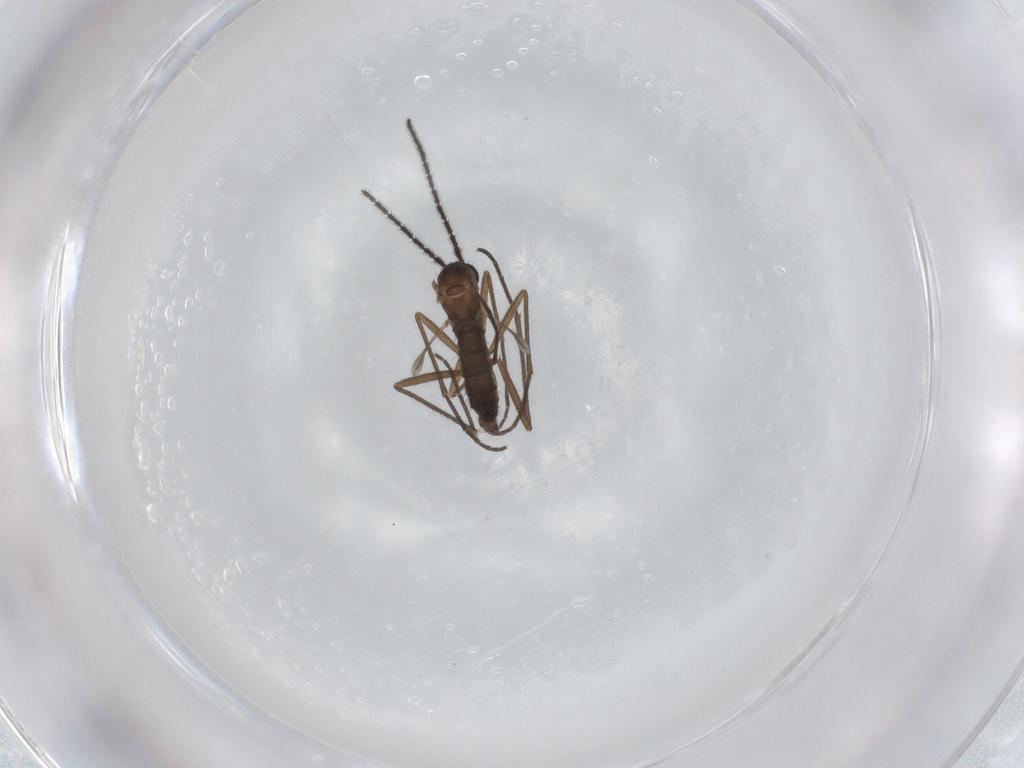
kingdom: Animalia
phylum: Arthropoda
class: Insecta
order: Diptera
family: Sciaridae
